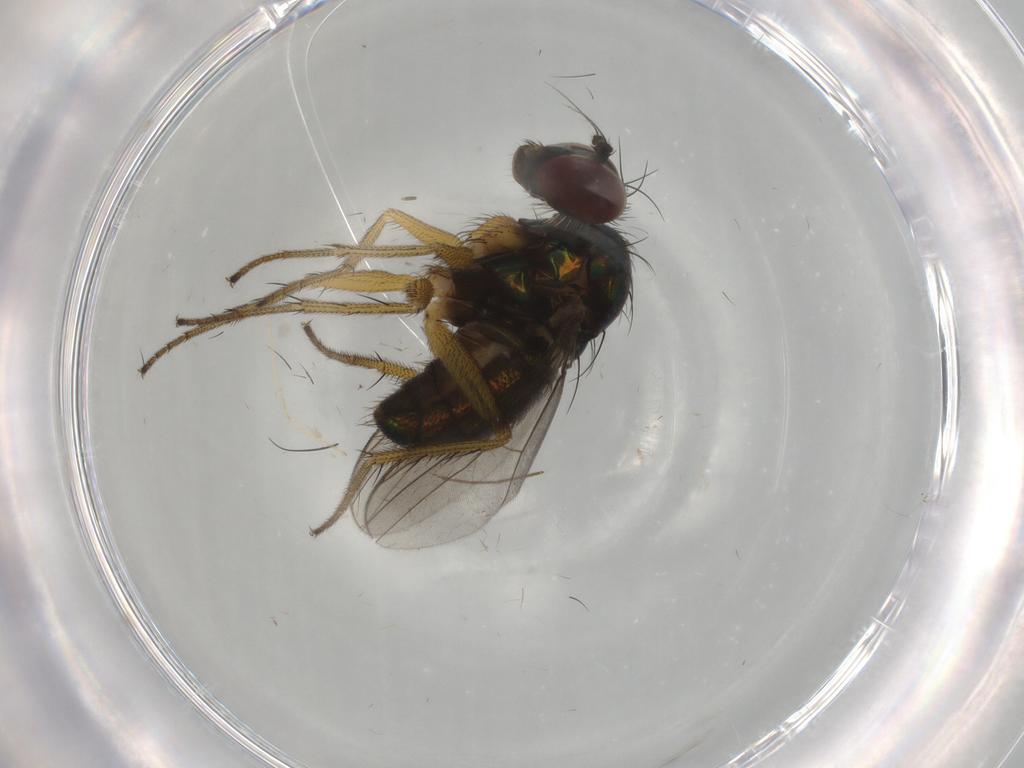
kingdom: Animalia
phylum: Arthropoda
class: Insecta
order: Diptera
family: Dolichopodidae
